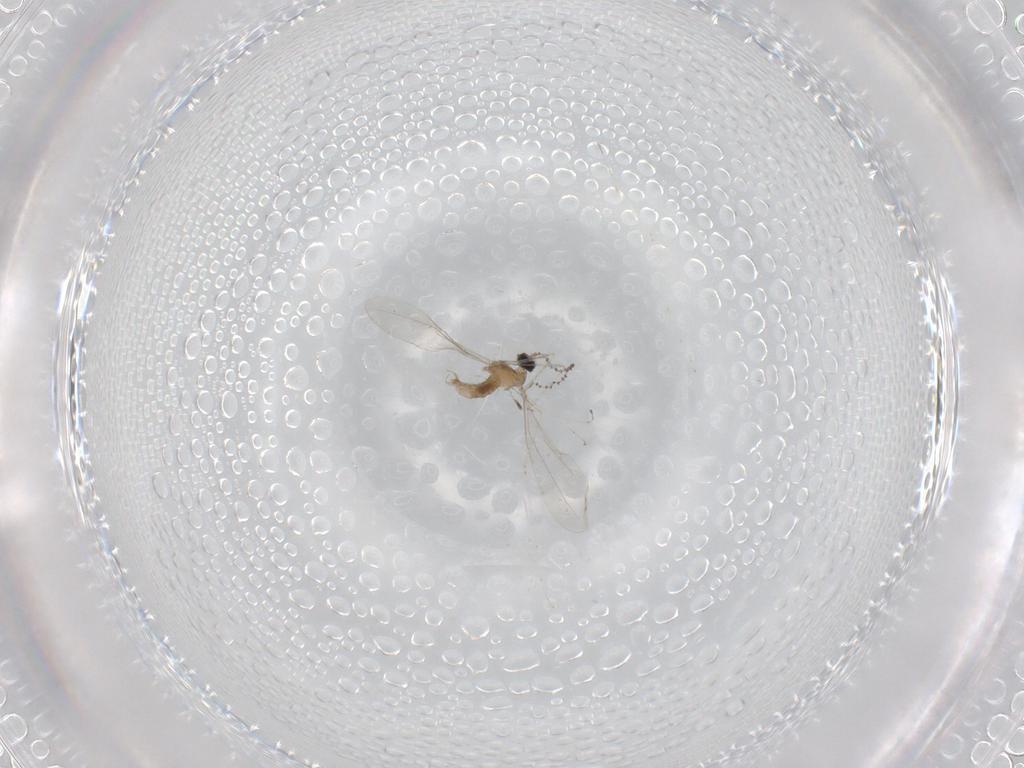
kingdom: Animalia
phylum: Arthropoda
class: Insecta
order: Diptera
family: Cecidomyiidae
